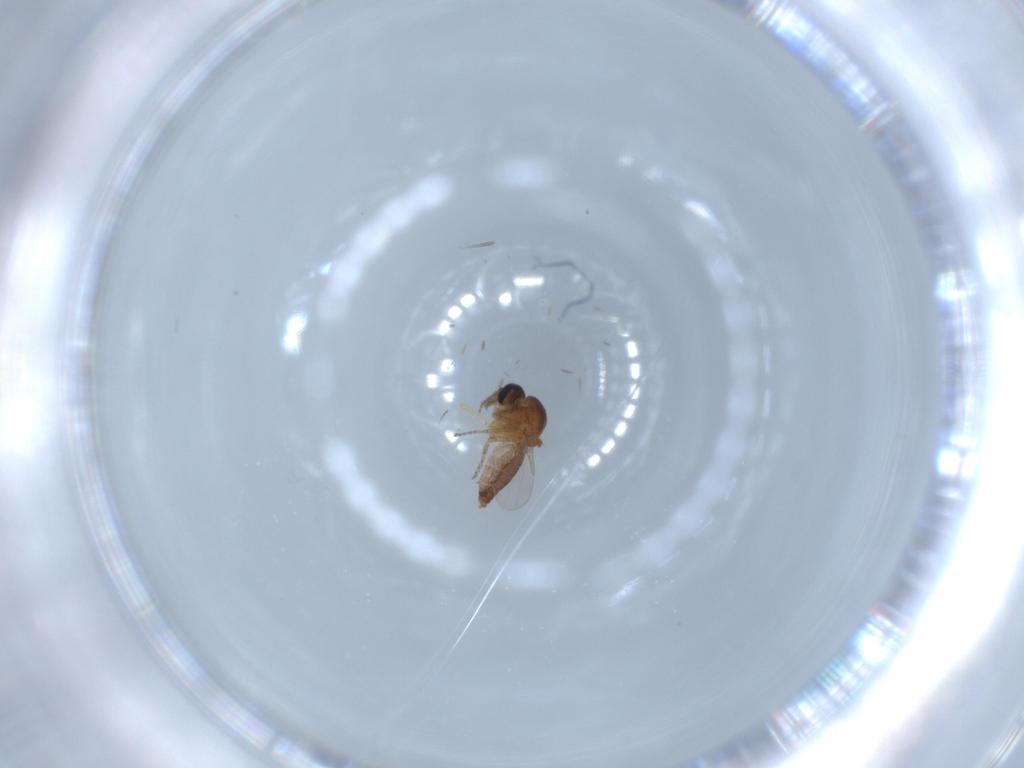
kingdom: Animalia
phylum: Arthropoda
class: Insecta
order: Diptera
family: Ceratopogonidae
